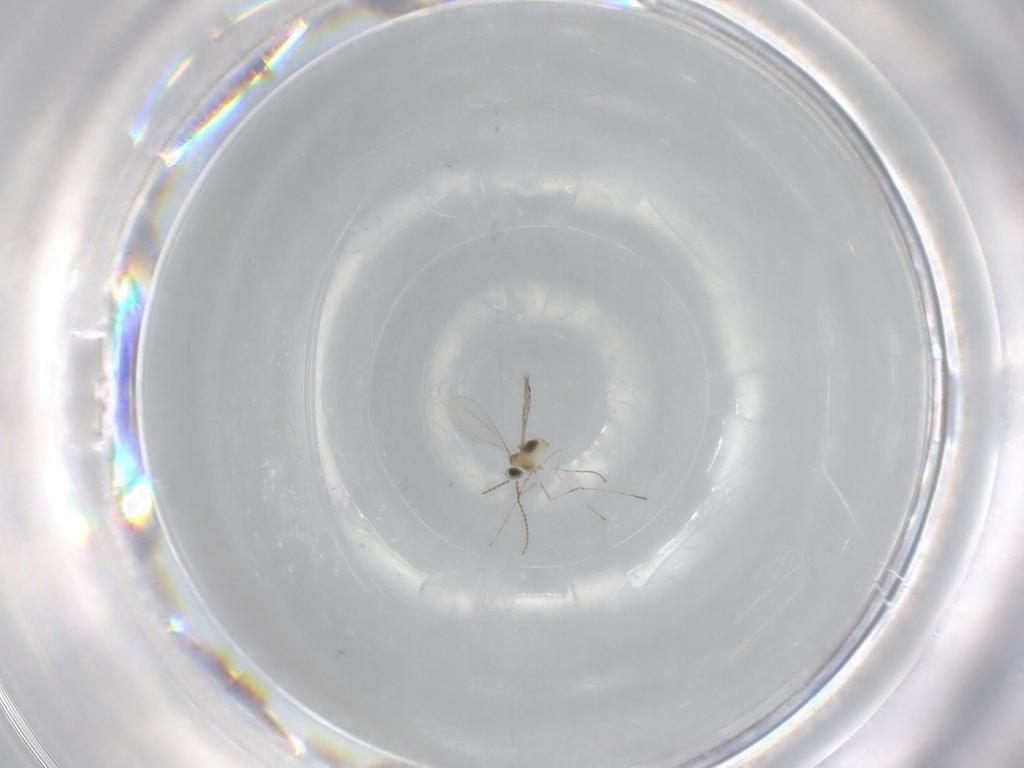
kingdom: Animalia
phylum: Arthropoda
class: Insecta
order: Diptera
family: Cecidomyiidae
